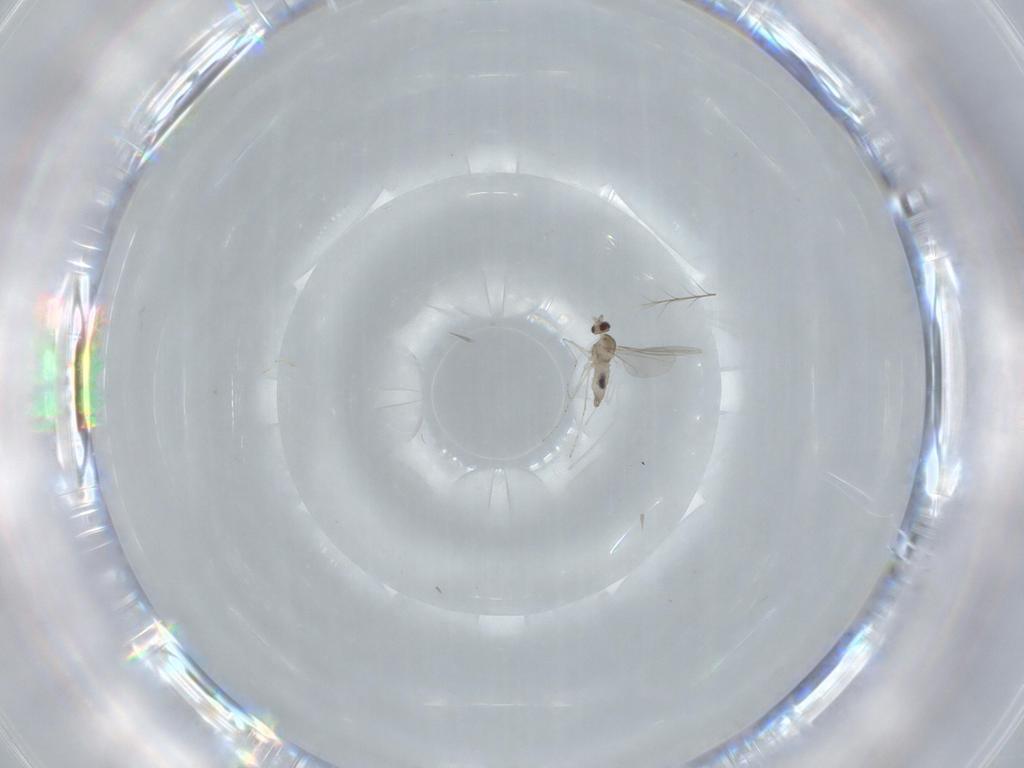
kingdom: Animalia
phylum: Arthropoda
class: Insecta
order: Diptera
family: Cecidomyiidae
